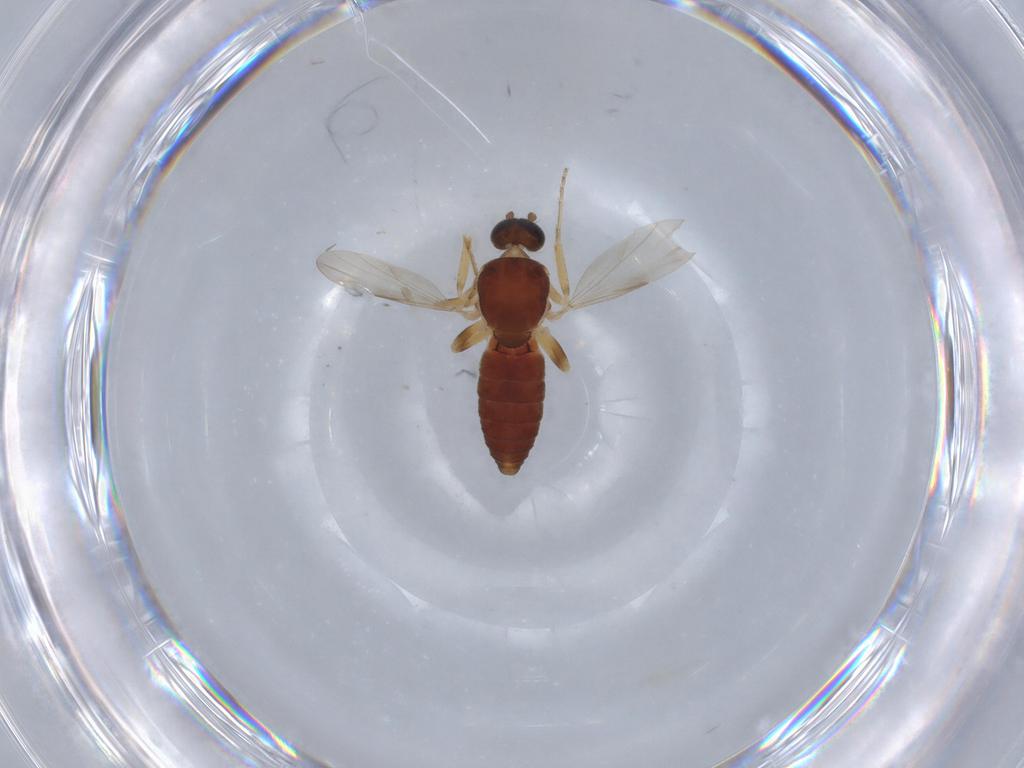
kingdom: Animalia
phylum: Arthropoda
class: Insecta
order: Diptera
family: Ceratopogonidae
